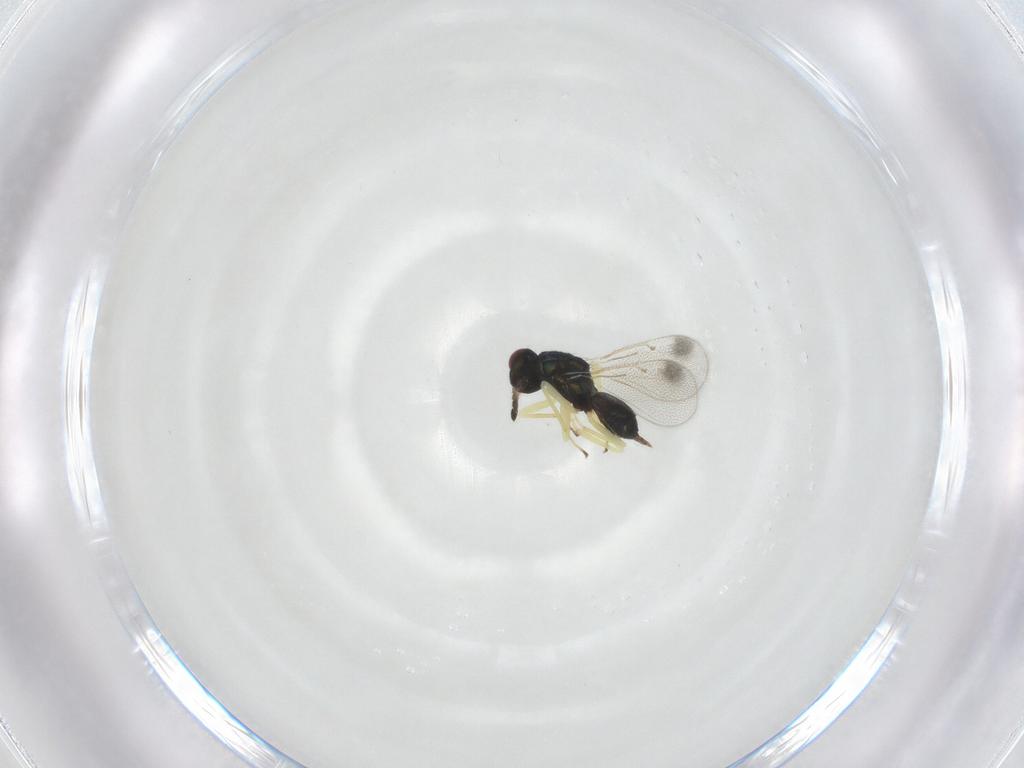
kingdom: Animalia
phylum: Arthropoda
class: Insecta
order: Hymenoptera
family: Eulophidae
